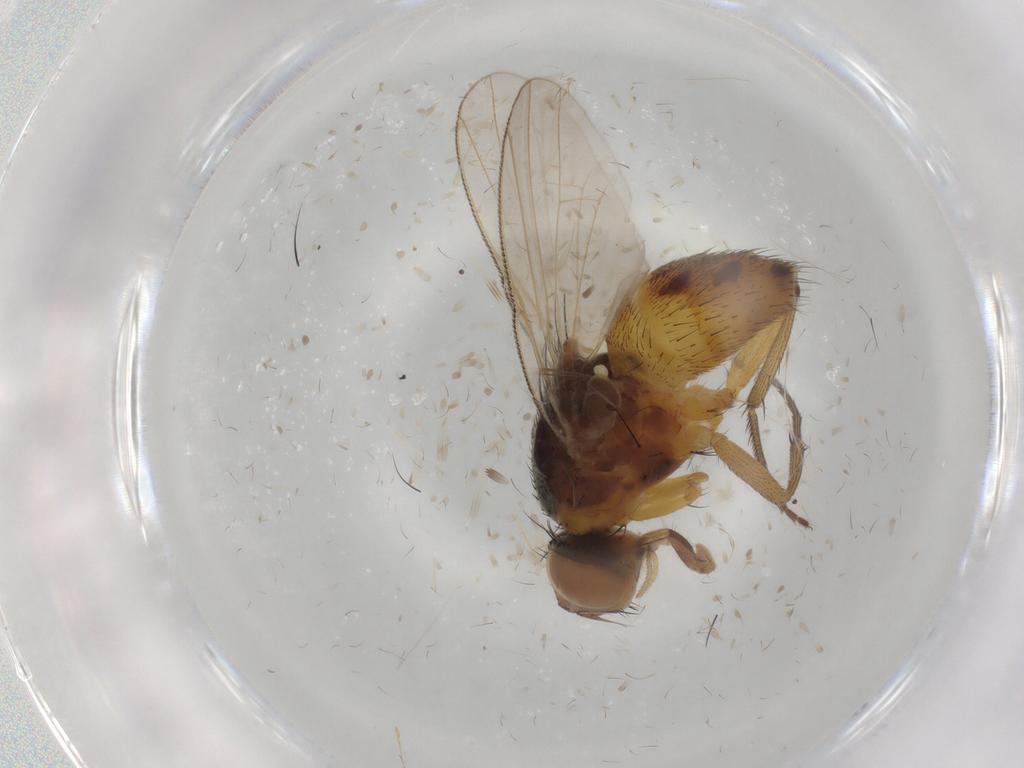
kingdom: Animalia
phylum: Arthropoda
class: Insecta
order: Diptera
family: Muscidae
